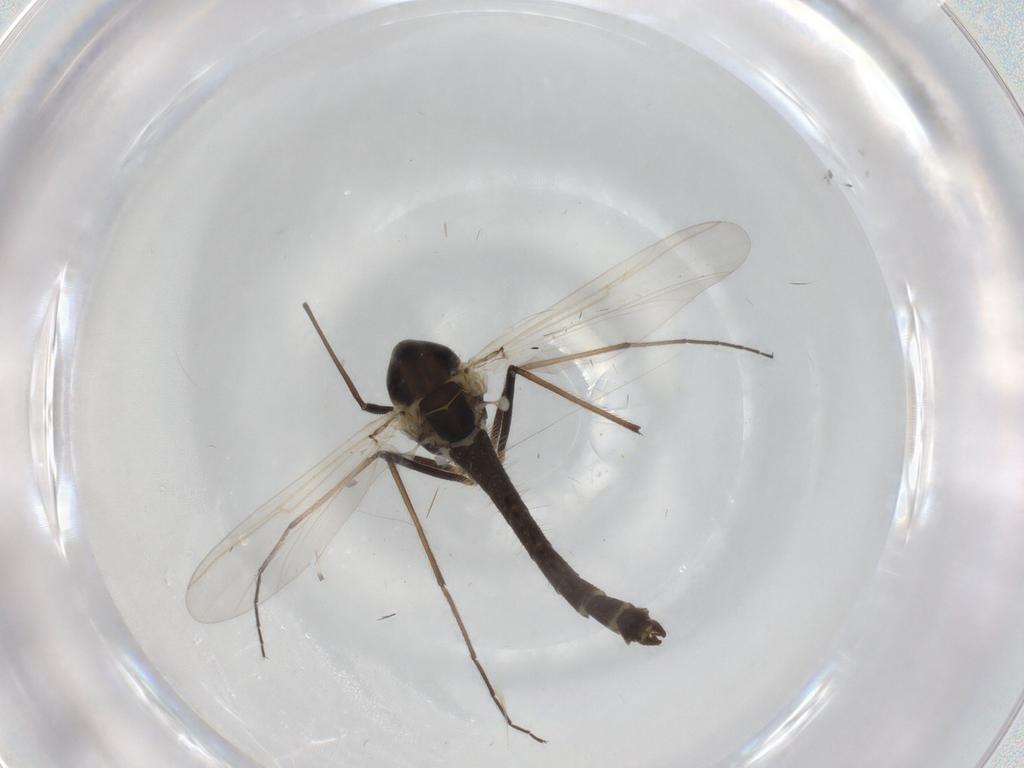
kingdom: Animalia
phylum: Arthropoda
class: Insecta
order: Diptera
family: Chironomidae
